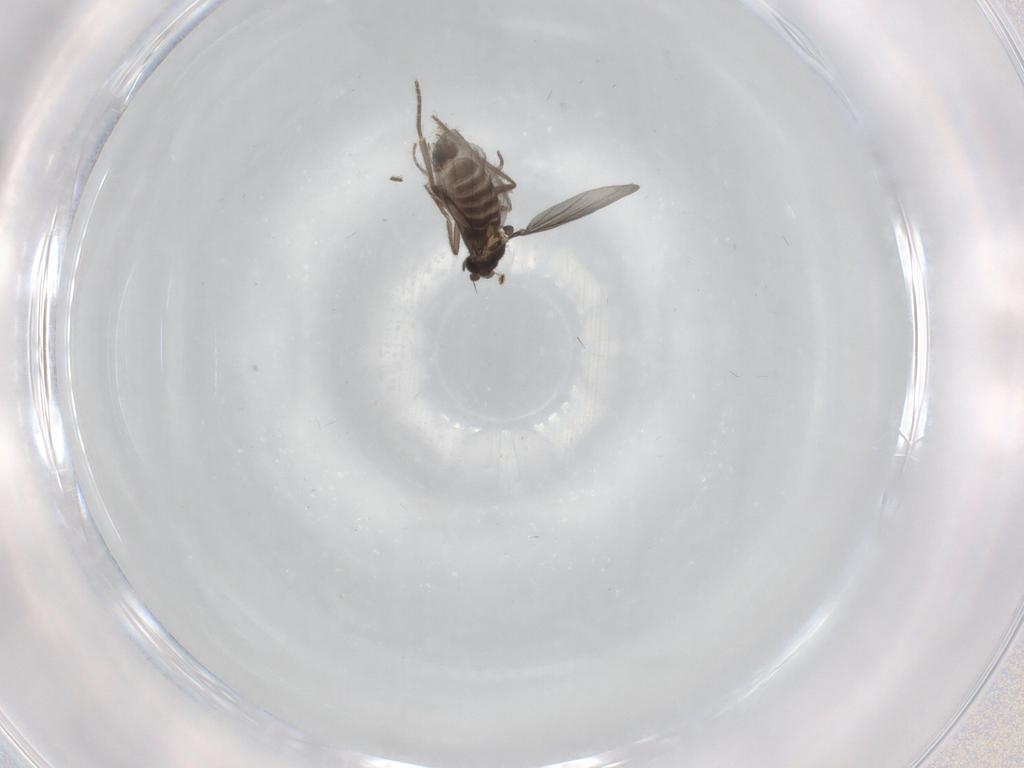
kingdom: Animalia
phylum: Arthropoda
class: Insecta
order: Diptera
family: Phoridae
